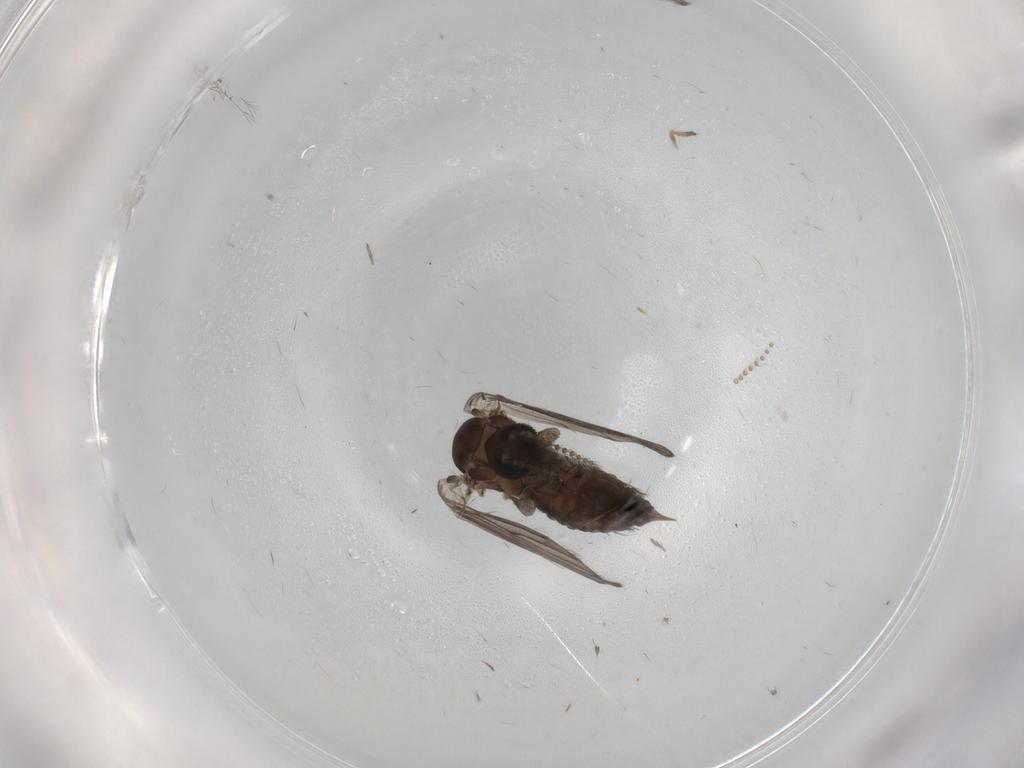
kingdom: Animalia
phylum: Arthropoda
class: Insecta
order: Diptera
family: Psychodidae
